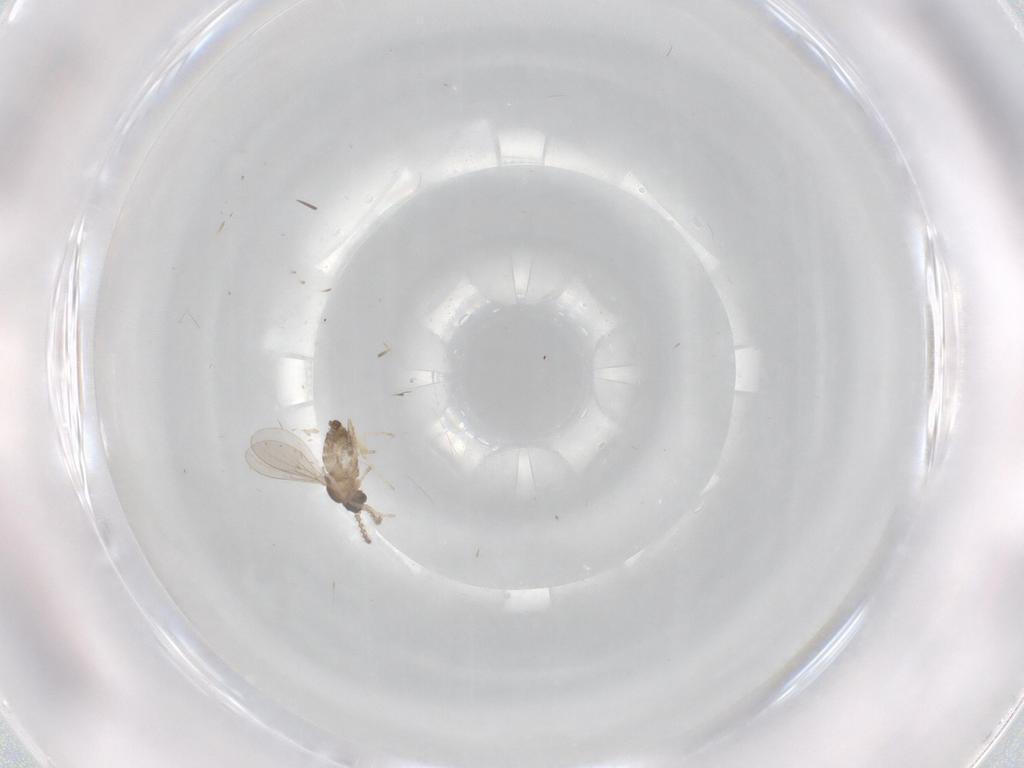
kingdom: Animalia
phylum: Arthropoda
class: Insecta
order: Diptera
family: Cecidomyiidae
